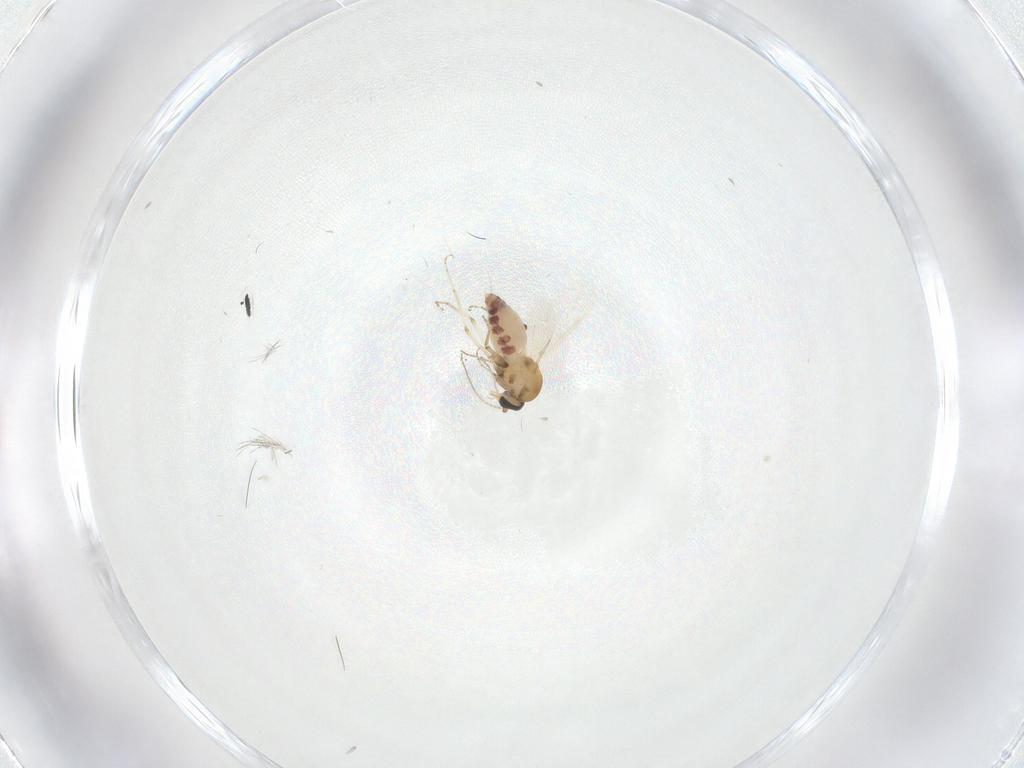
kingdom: Animalia
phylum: Arthropoda
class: Insecta
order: Diptera
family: Ceratopogonidae
